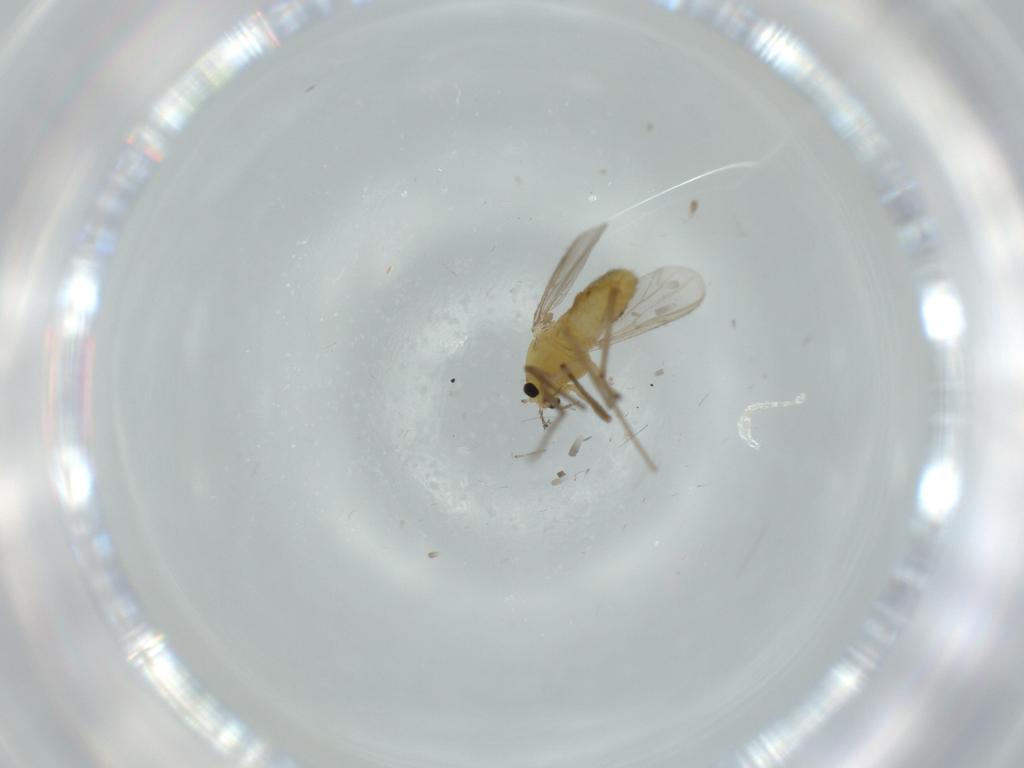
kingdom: Animalia
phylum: Arthropoda
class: Insecta
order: Diptera
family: Chironomidae
